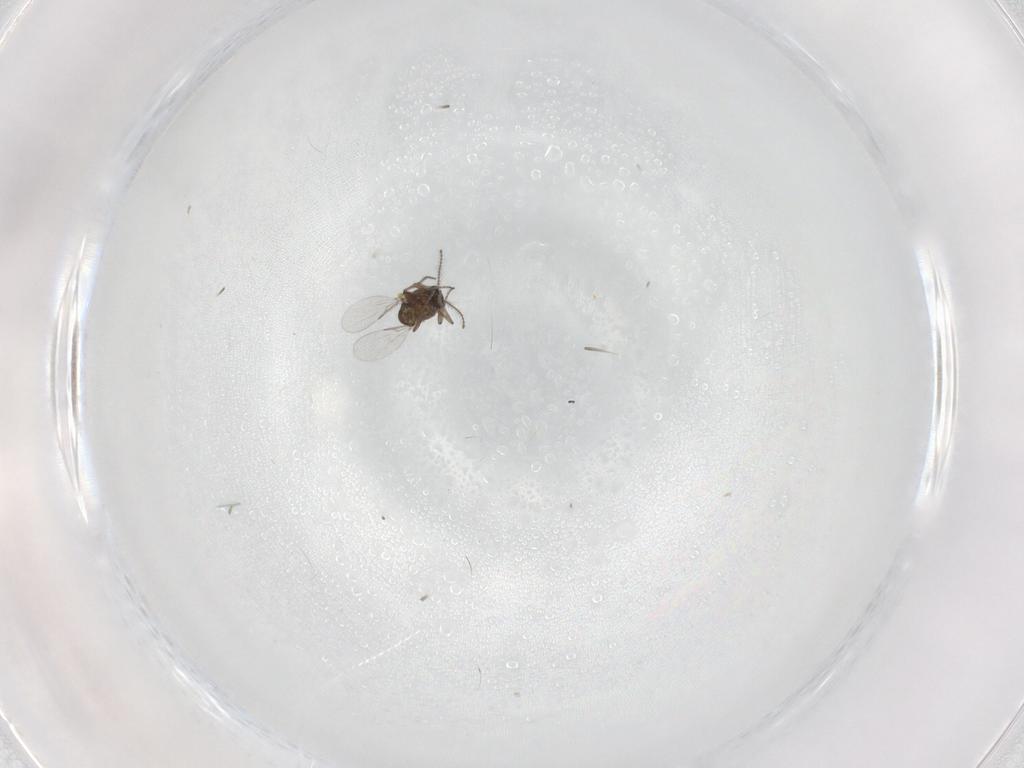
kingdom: Animalia
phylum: Arthropoda
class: Insecta
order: Diptera
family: Ceratopogonidae
